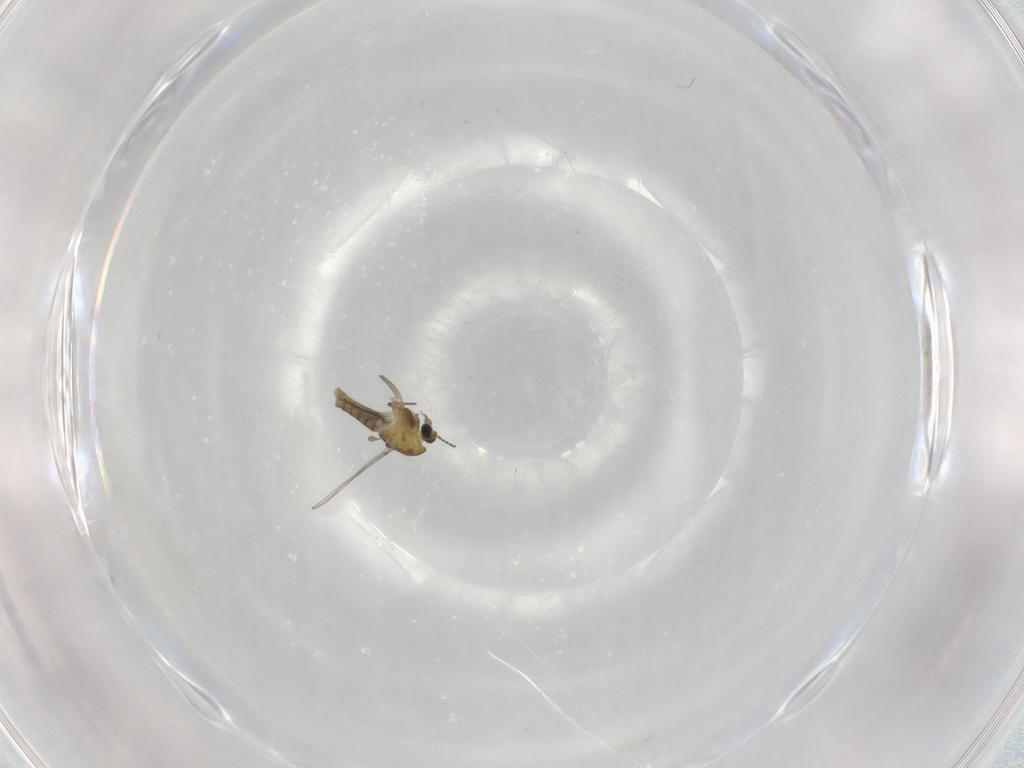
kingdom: Animalia
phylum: Arthropoda
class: Insecta
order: Diptera
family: Chironomidae
